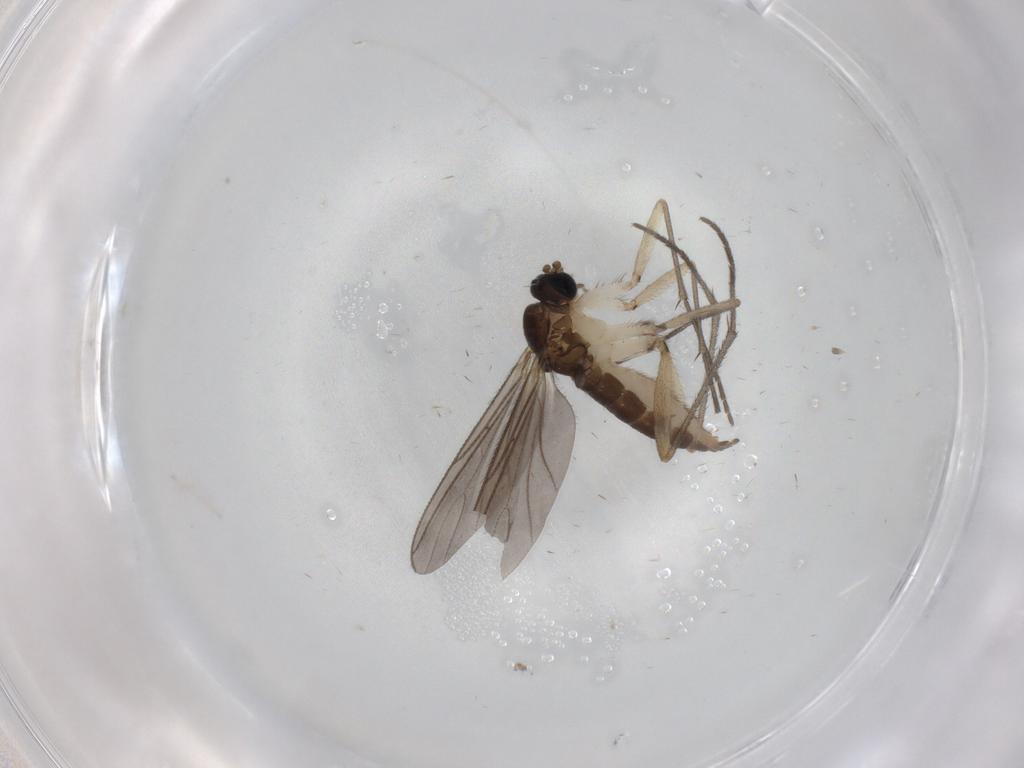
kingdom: Animalia
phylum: Arthropoda
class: Insecta
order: Diptera
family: Sciaridae
